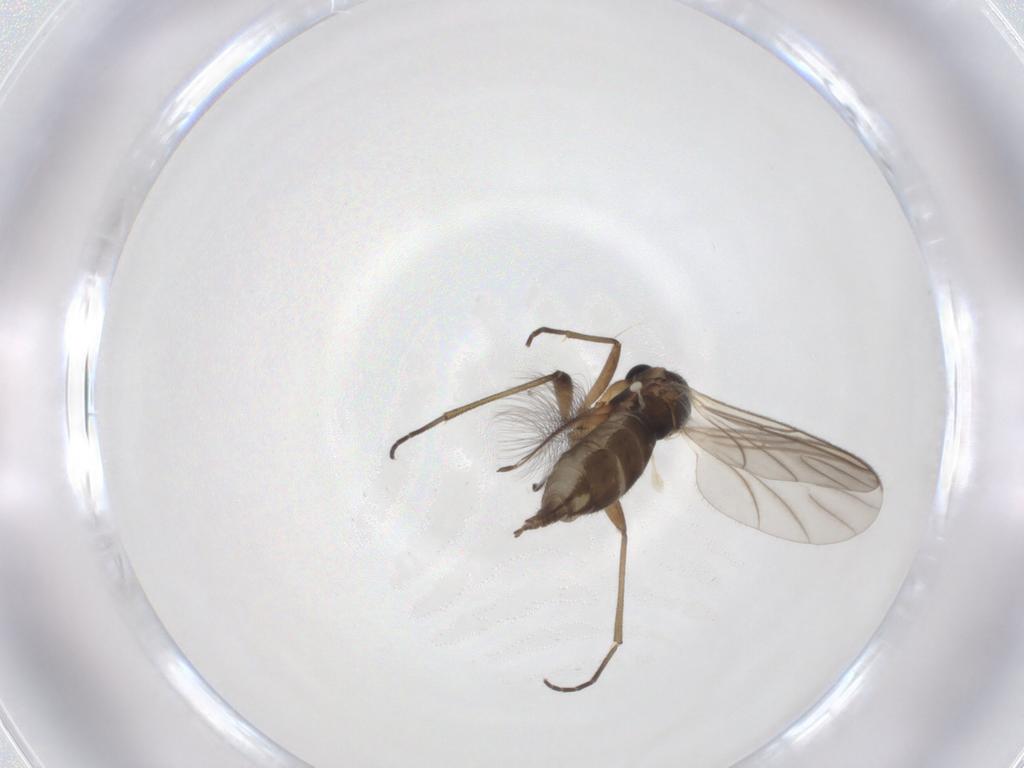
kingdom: Animalia
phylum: Arthropoda
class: Insecta
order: Diptera
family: Chironomidae
